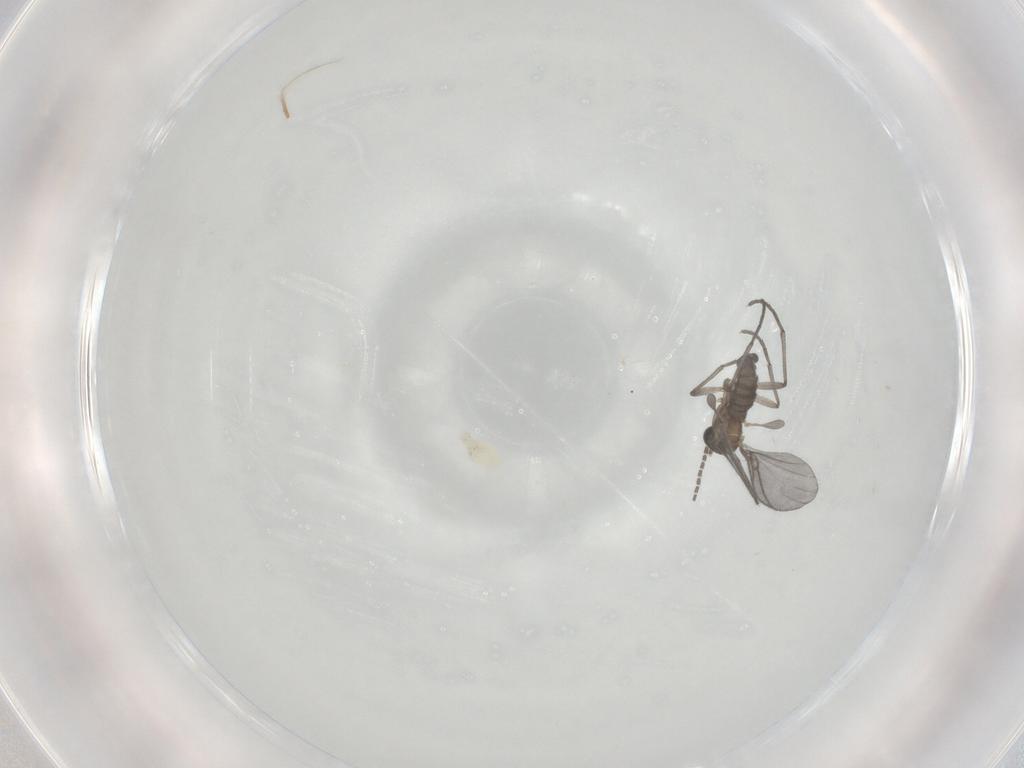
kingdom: Animalia
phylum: Arthropoda
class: Insecta
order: Diptera
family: Sciaridae
